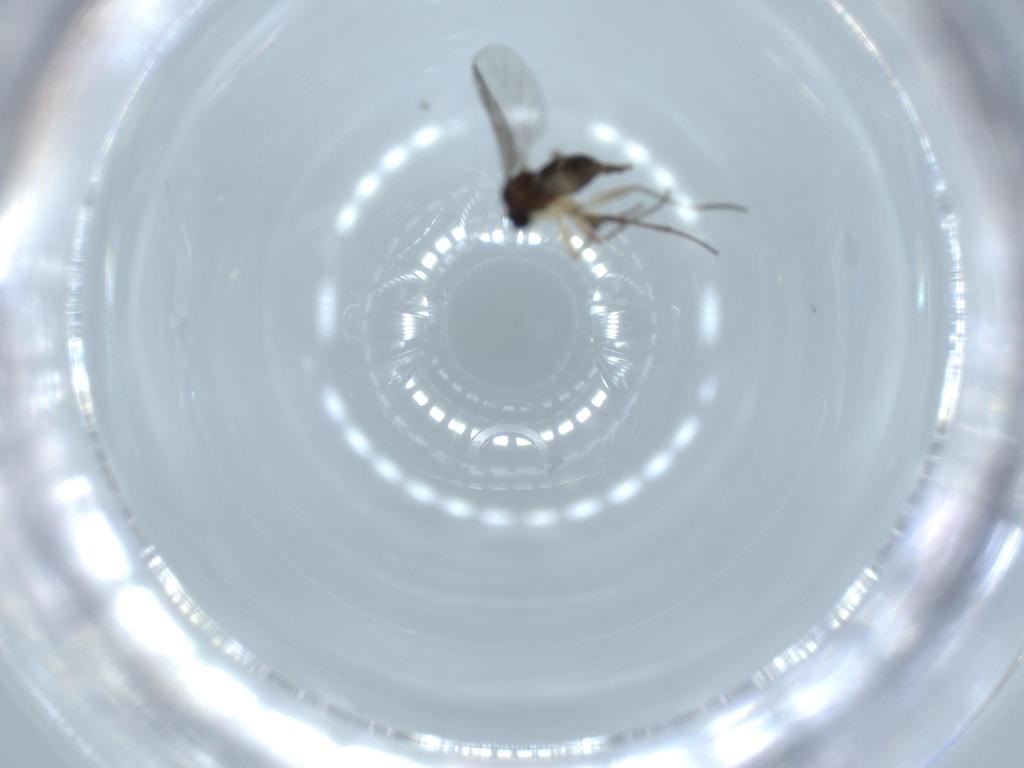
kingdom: Animalia
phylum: Arthropoda
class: Insecta
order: Diptera
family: Sciaridae
